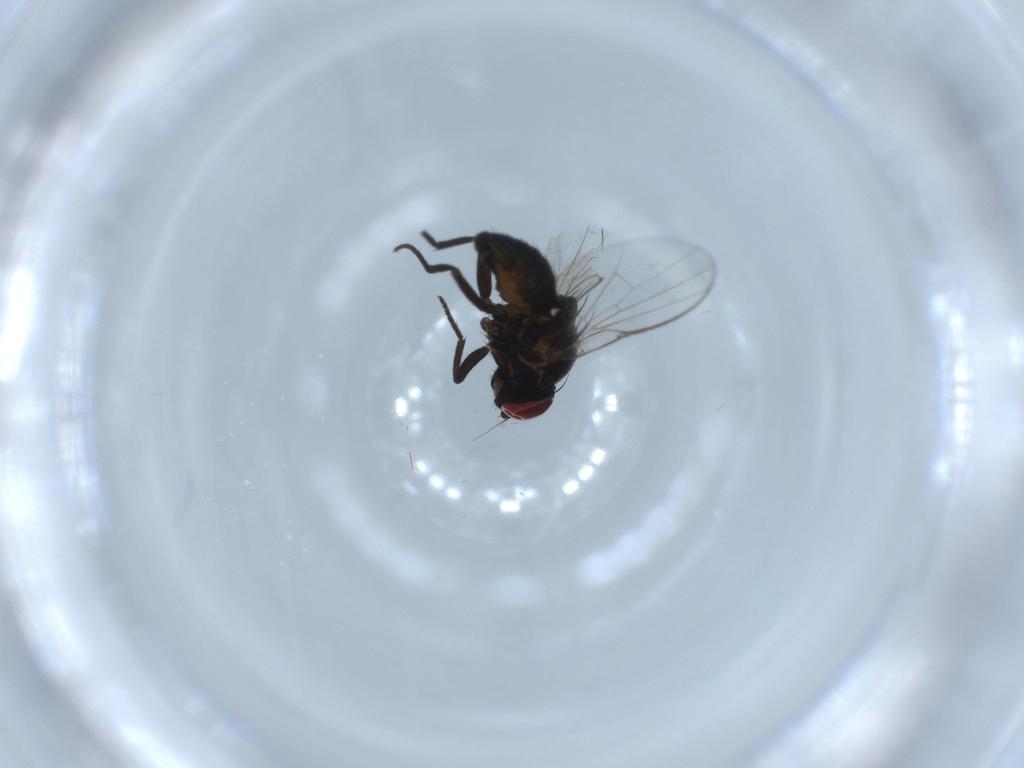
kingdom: Animalia
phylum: Arthropoda
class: Insecta
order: Diptera
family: Agromyzidae
